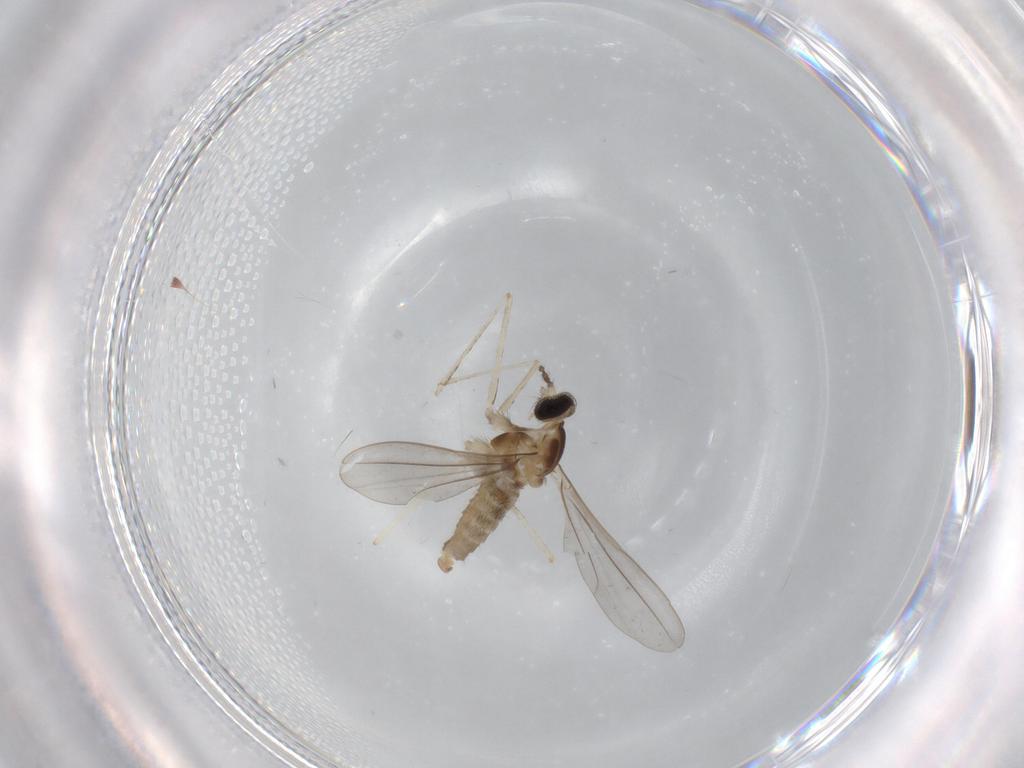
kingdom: Animalia
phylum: Arthropoda
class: Insecta
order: Diptera
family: Cecidomyiidae
